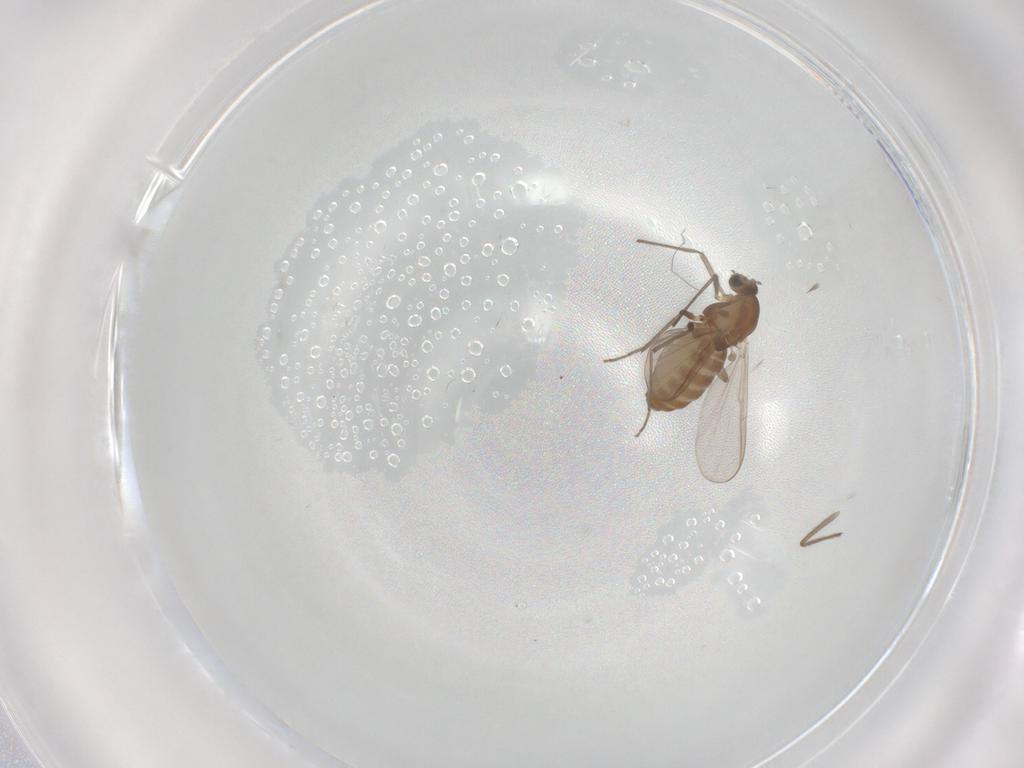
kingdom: Animalia
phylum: Arthropoda
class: Insecta
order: Diptera
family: Chironomidae
